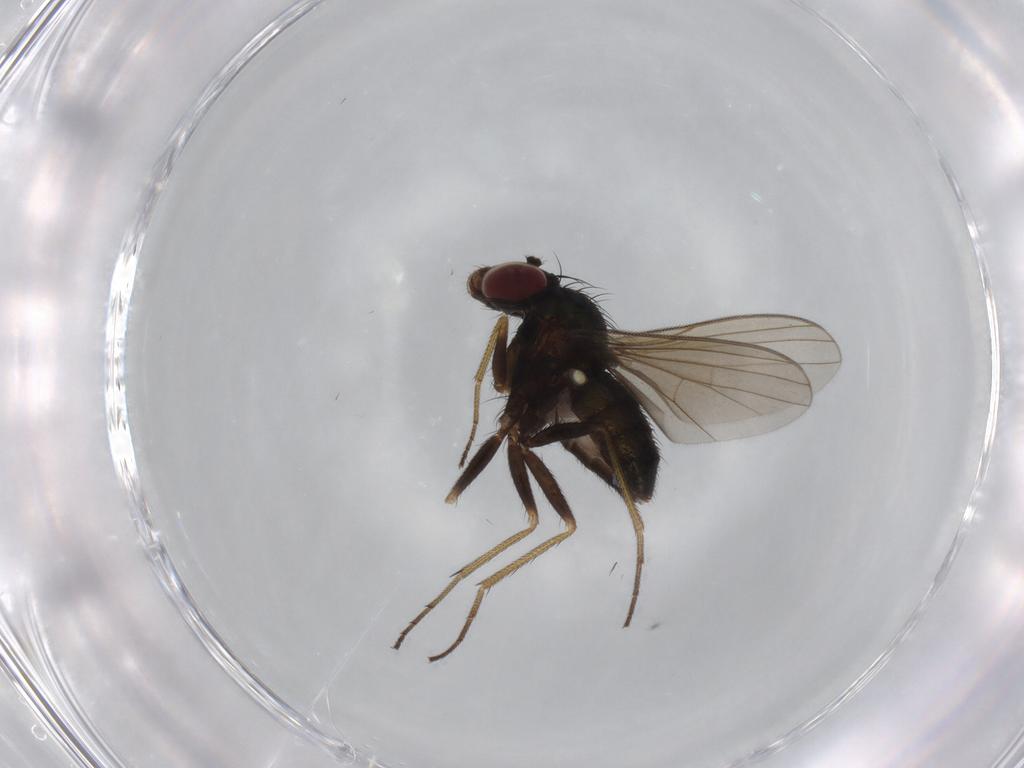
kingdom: Animalia
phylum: Arthropoda
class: Insecta
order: Diptera
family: Dolichopodidae
